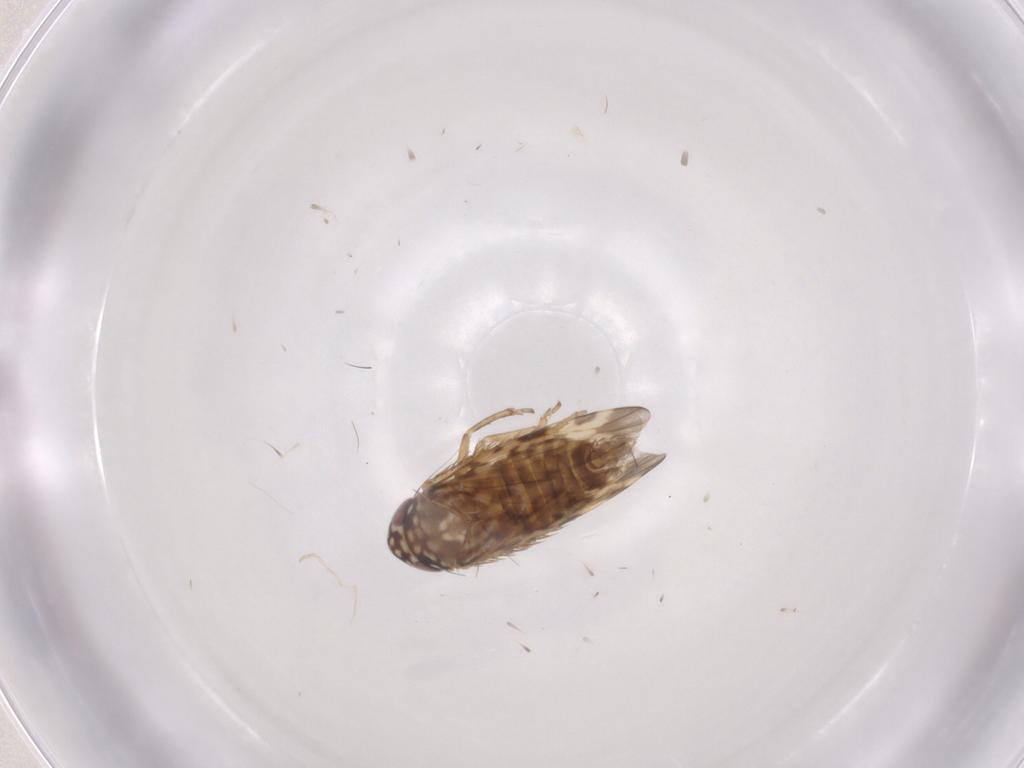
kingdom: Animalia
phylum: Arthropoda
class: Insecta
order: Hemiptera
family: Cicadellidae
